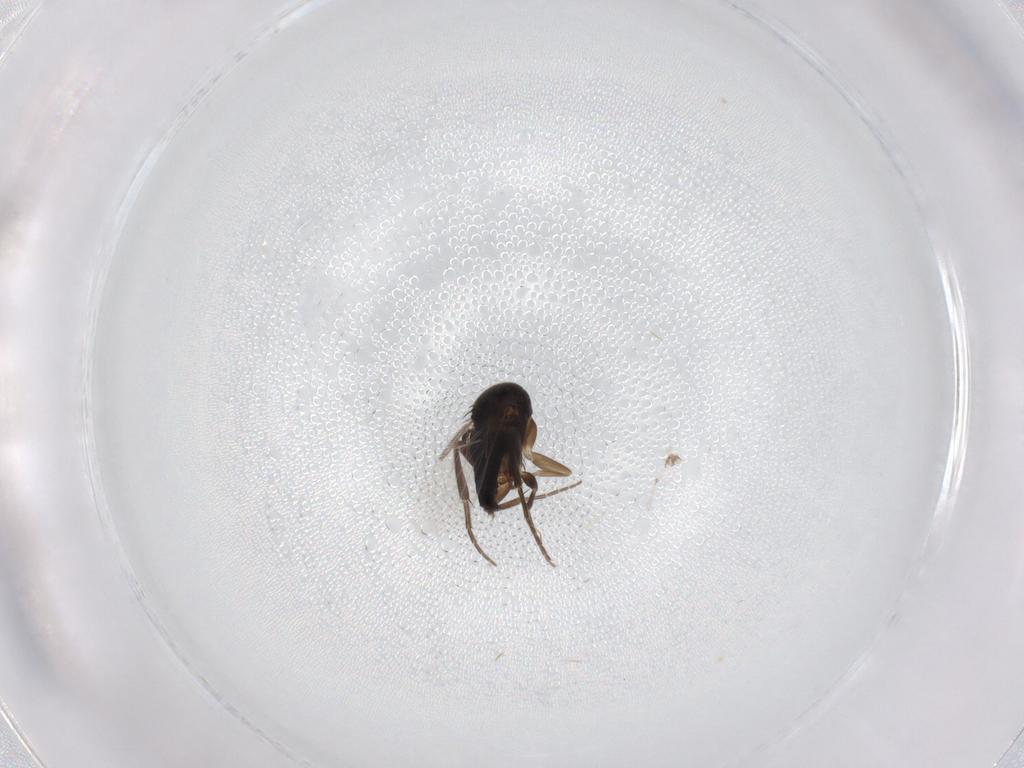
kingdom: Animalia
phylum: Arthropoda
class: Insecta
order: Diptera
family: Phoridae
